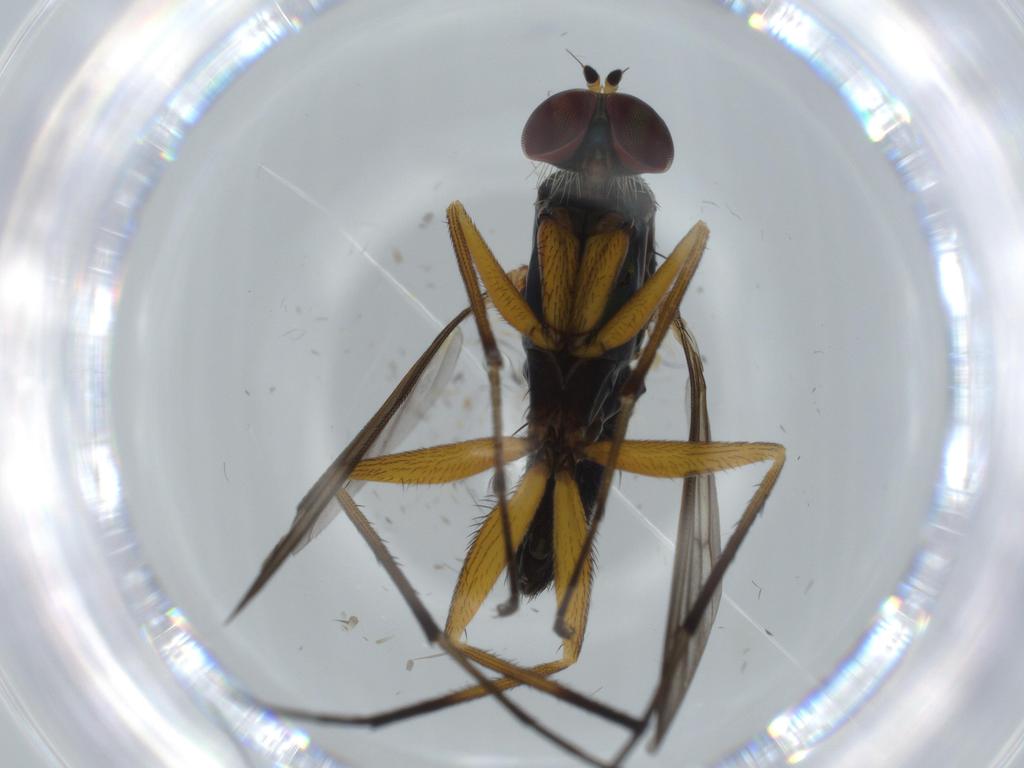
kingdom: Animalia
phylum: Arthropoda
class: Insecta
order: Diptera
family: Dolichopodidae
